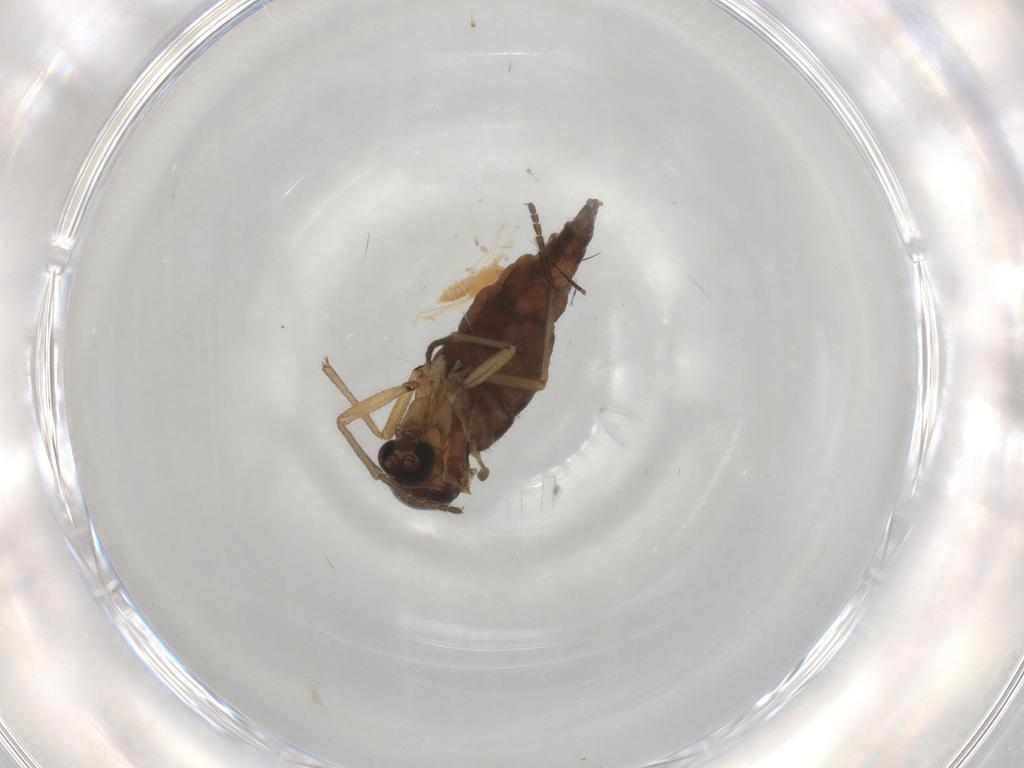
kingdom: Animalia
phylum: Arthropoda
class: Insecta
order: Diptera
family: Sciaridae
